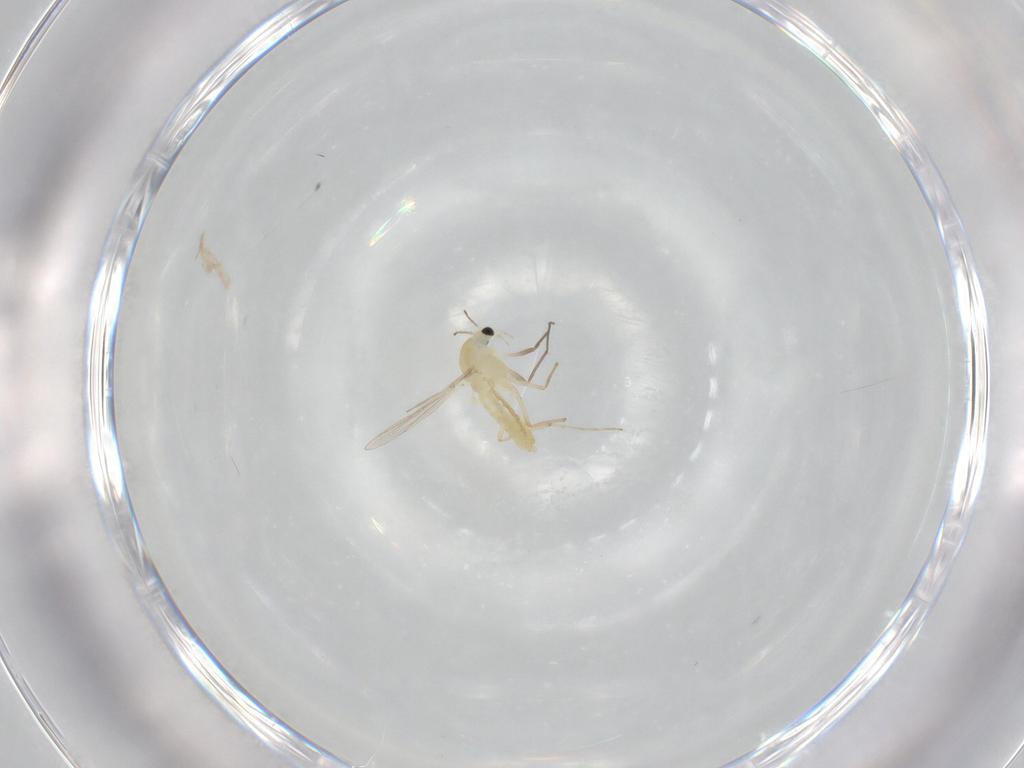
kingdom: Animalia
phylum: Arthropoda
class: Insecta
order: Diptera
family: Chironomidae
